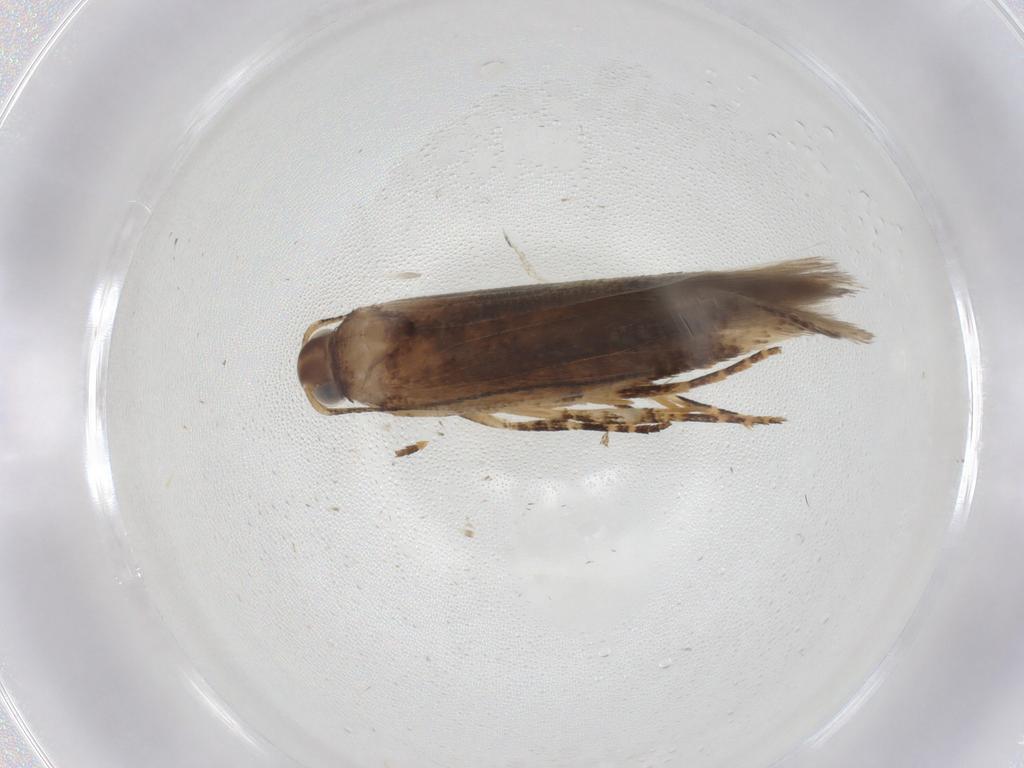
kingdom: Animalia
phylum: Arthropoda
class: Insecta
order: Lepidoptera
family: Gelechiidae
